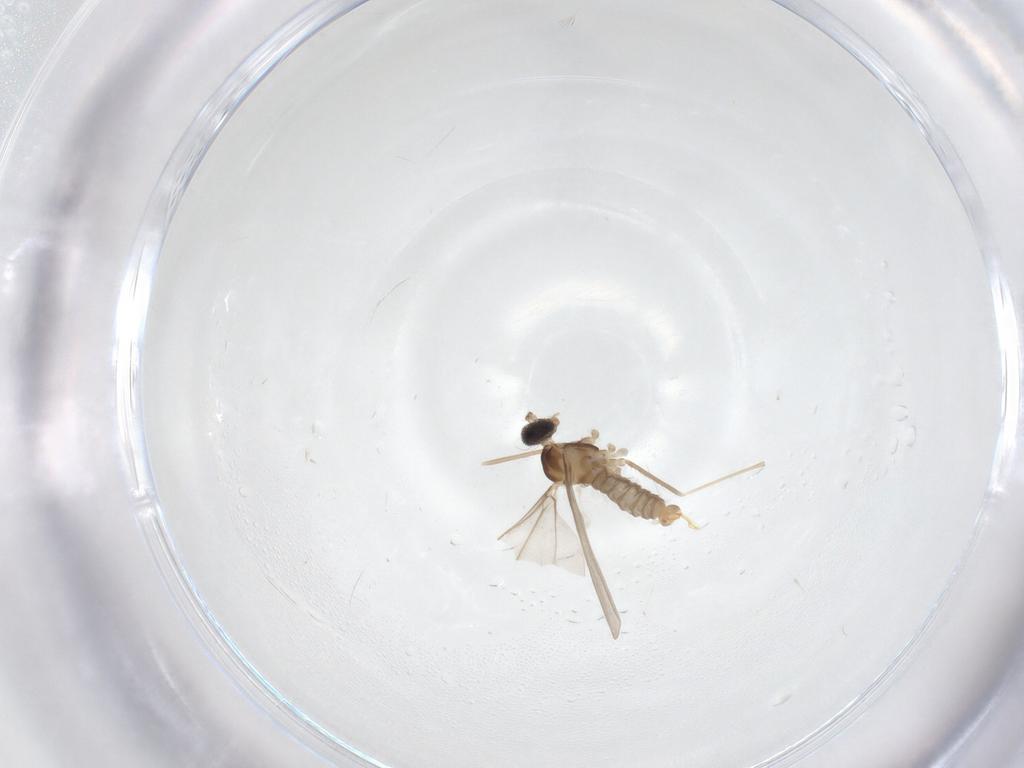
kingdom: Animalia
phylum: Arthropoda
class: Insecta
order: Diptera
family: Cecidomyiidae
